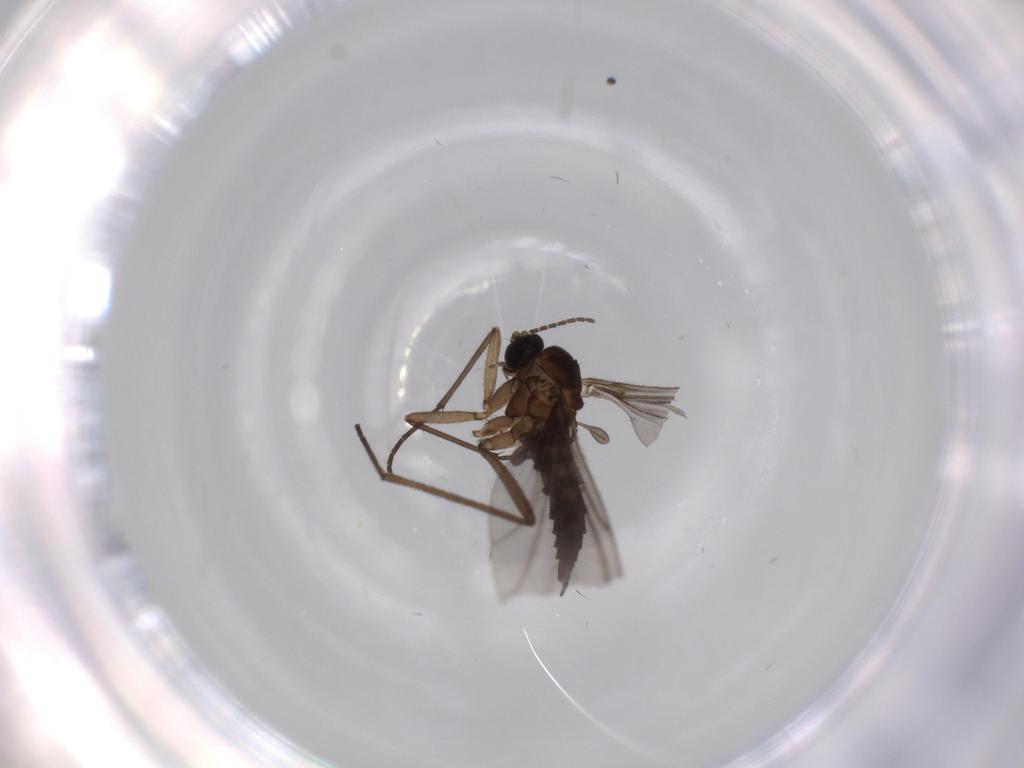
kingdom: Animalia
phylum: Arthropoda
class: Insecta
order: Diptera
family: Sciaridae
